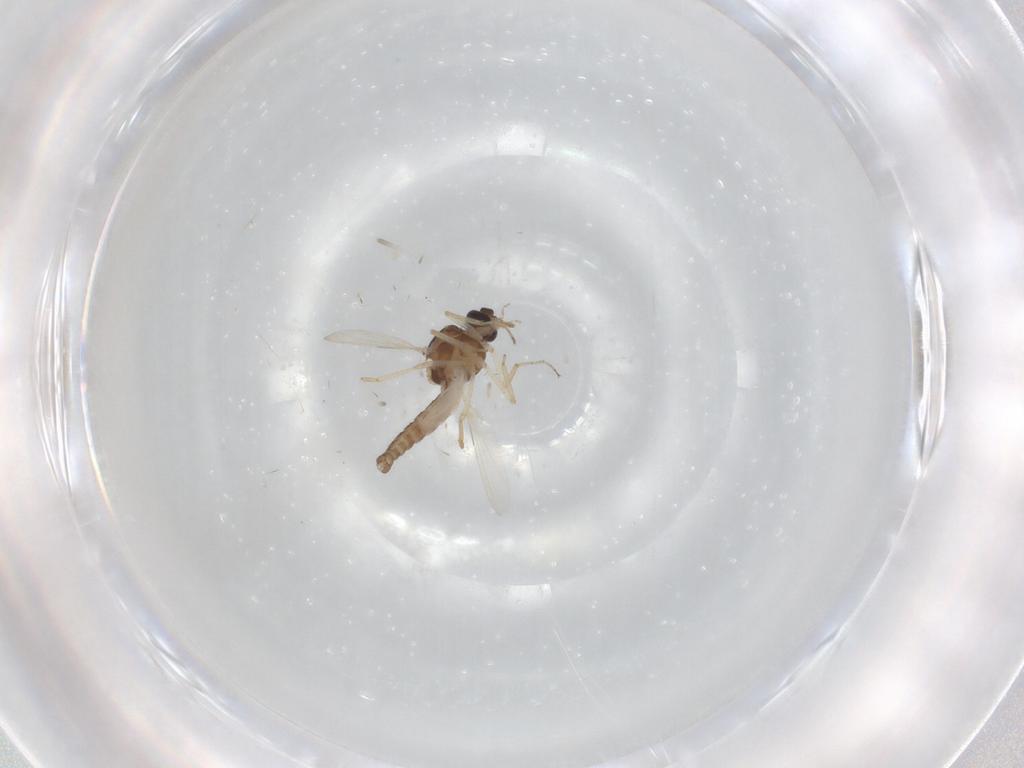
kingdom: Animalia
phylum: Arthropoda
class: Insecta
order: Diptera
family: Ceratopogonidae
